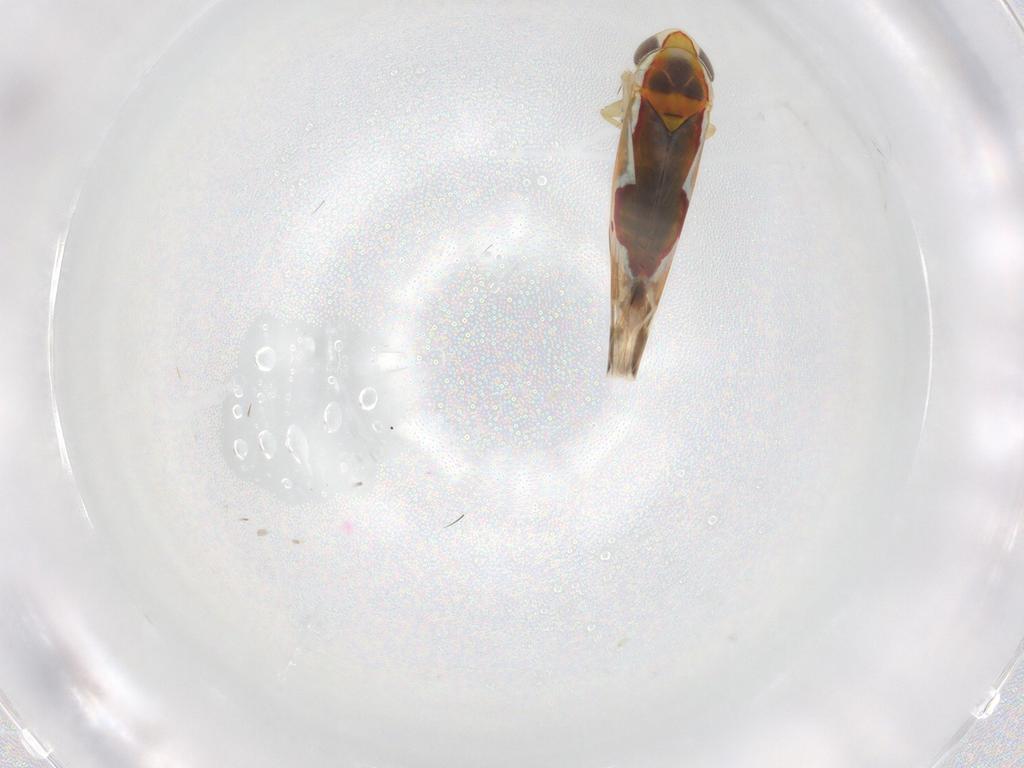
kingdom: Animalia
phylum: Arthropoda
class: Insecta
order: Hemiptera
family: Cicadellidae
